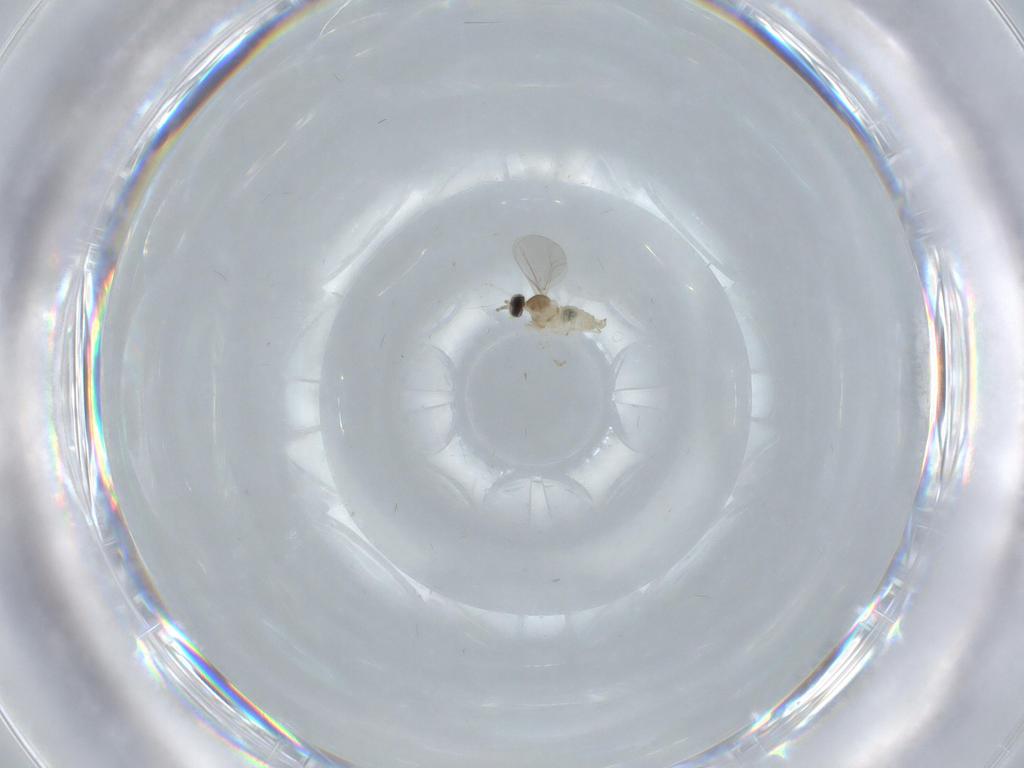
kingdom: Animalia
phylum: Arthropoda
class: Insecta
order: Diptera
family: Cecidomyiidae
